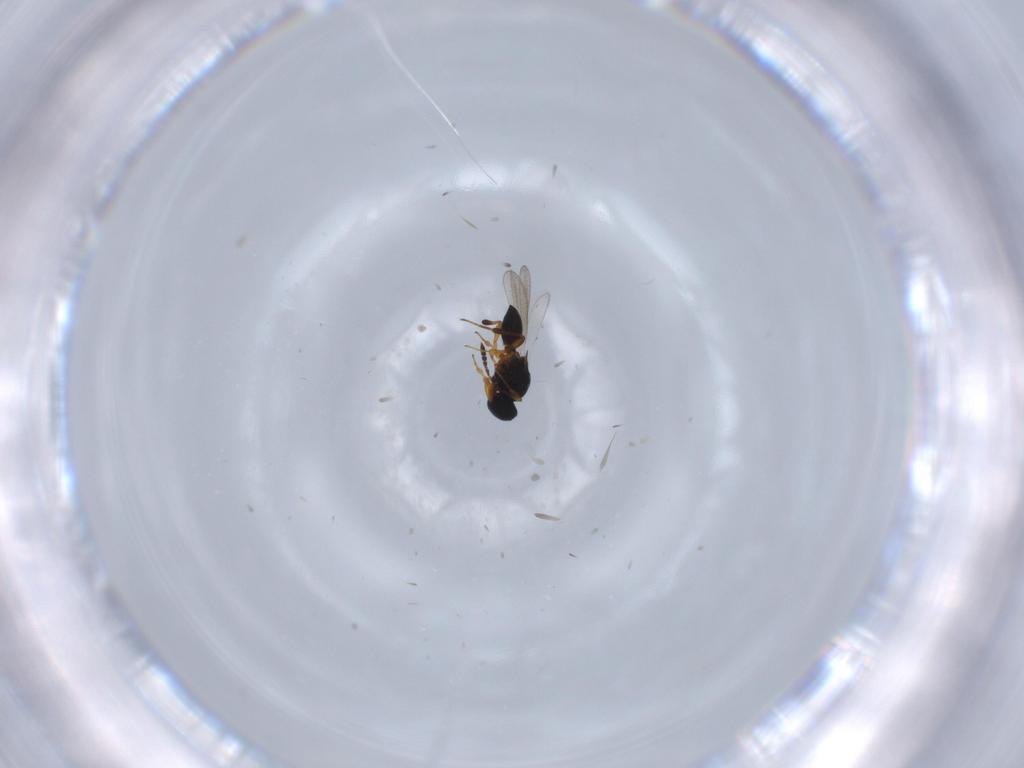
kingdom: Animalia
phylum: Arthropoda
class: Insecta
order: Hymenoptera
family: Platygastridae
